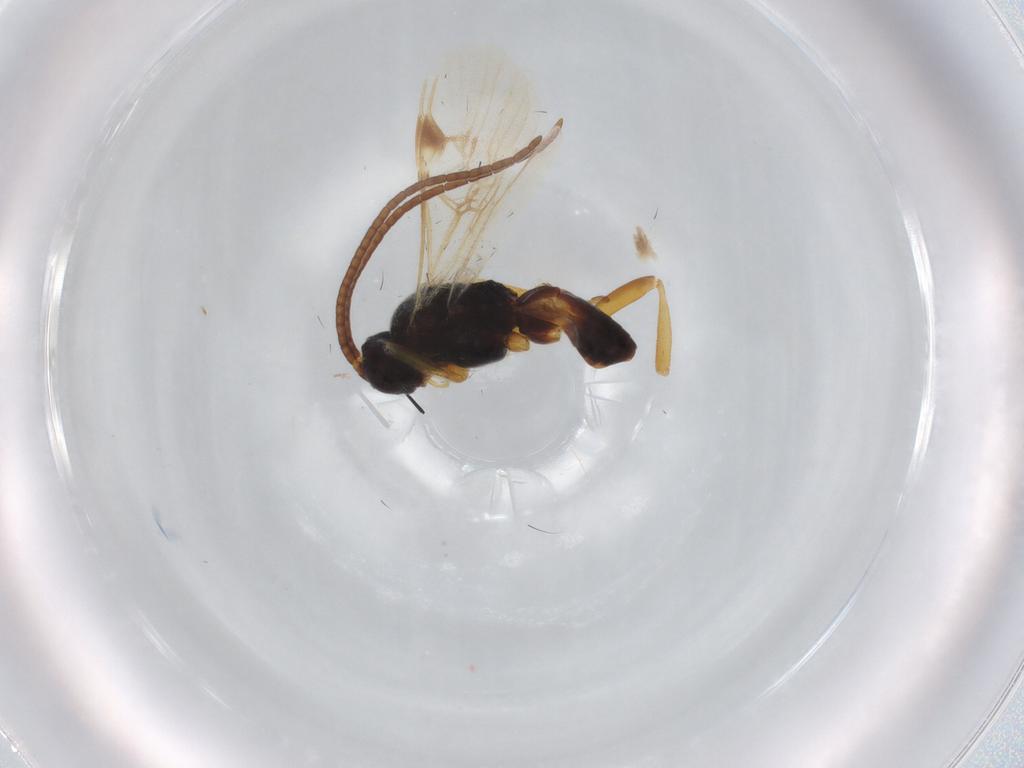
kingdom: Animalia
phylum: Arthropoda
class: Insecta
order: Hymenoptera
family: Braconidae
